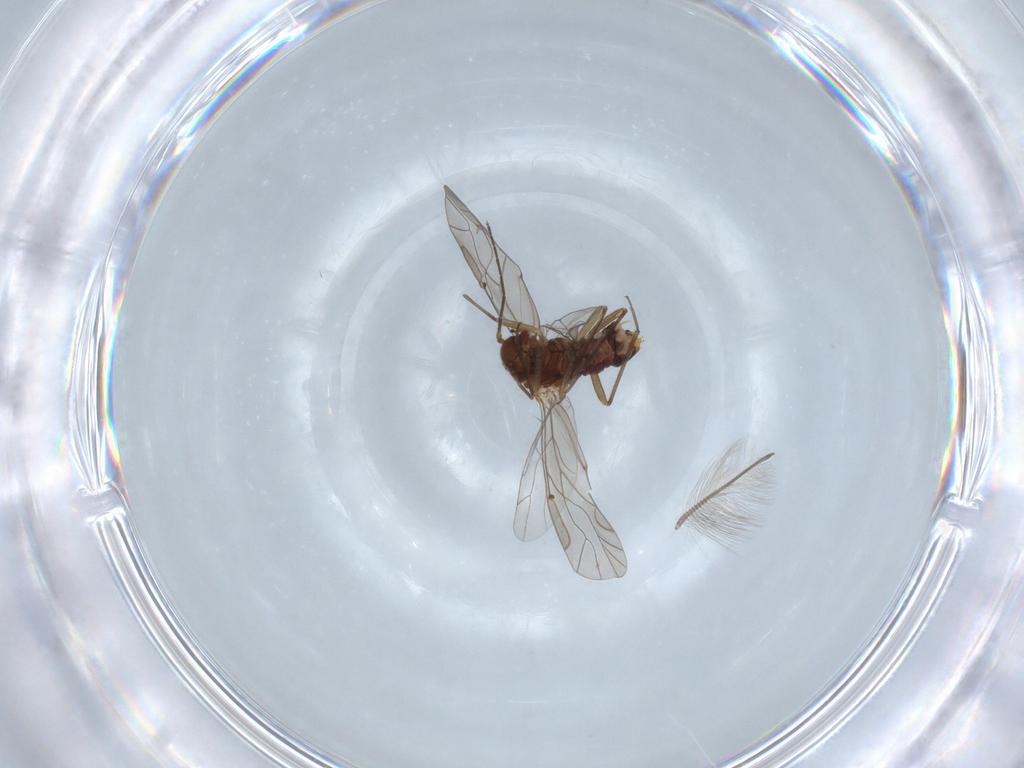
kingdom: Animalia
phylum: Arthropoda
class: Insecta
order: Psocodea
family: Lachesillidae
